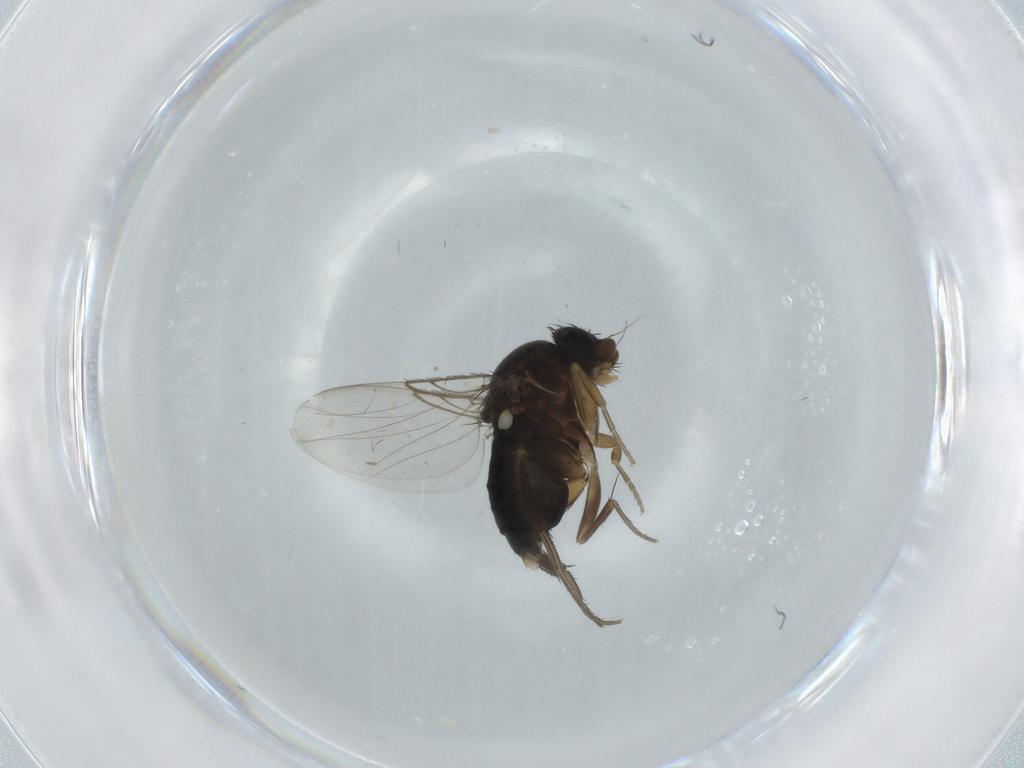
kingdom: Animalia
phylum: Arthropoda
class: Insecta
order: Diptera
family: Phoridae
